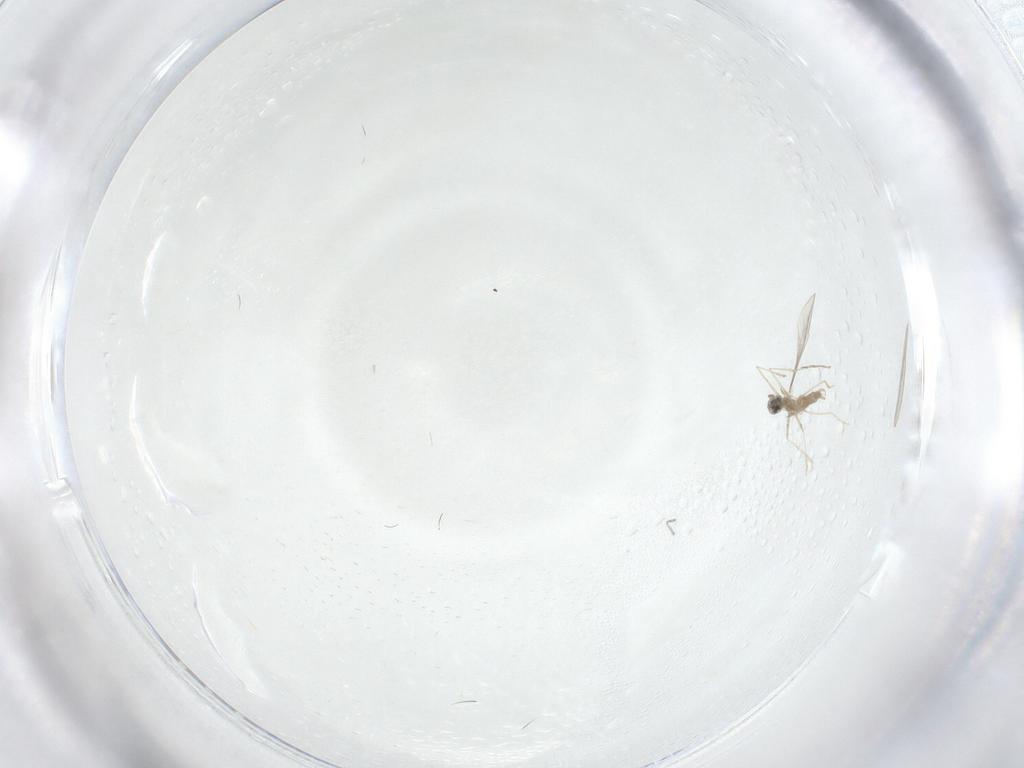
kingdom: Animalia
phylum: Arthropoda
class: Insecta
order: Diptera
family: Cecidomyiidae
